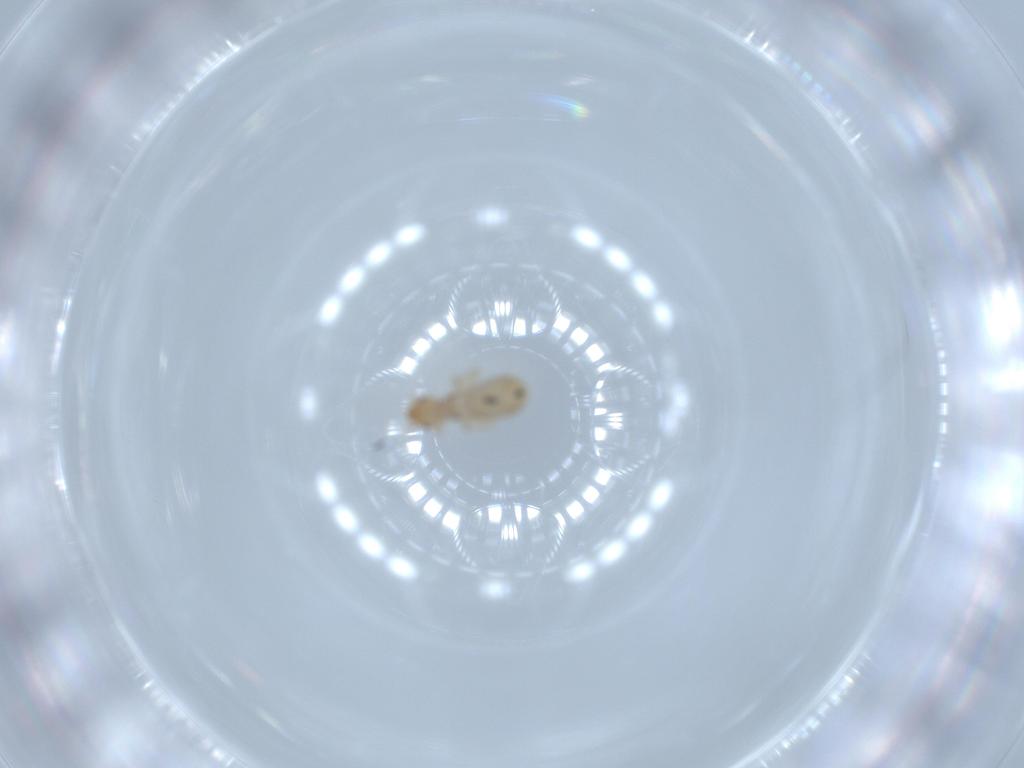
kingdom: Animalia
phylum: Arthropoda
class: Insecta
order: Psocodea
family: Liposcelididae
